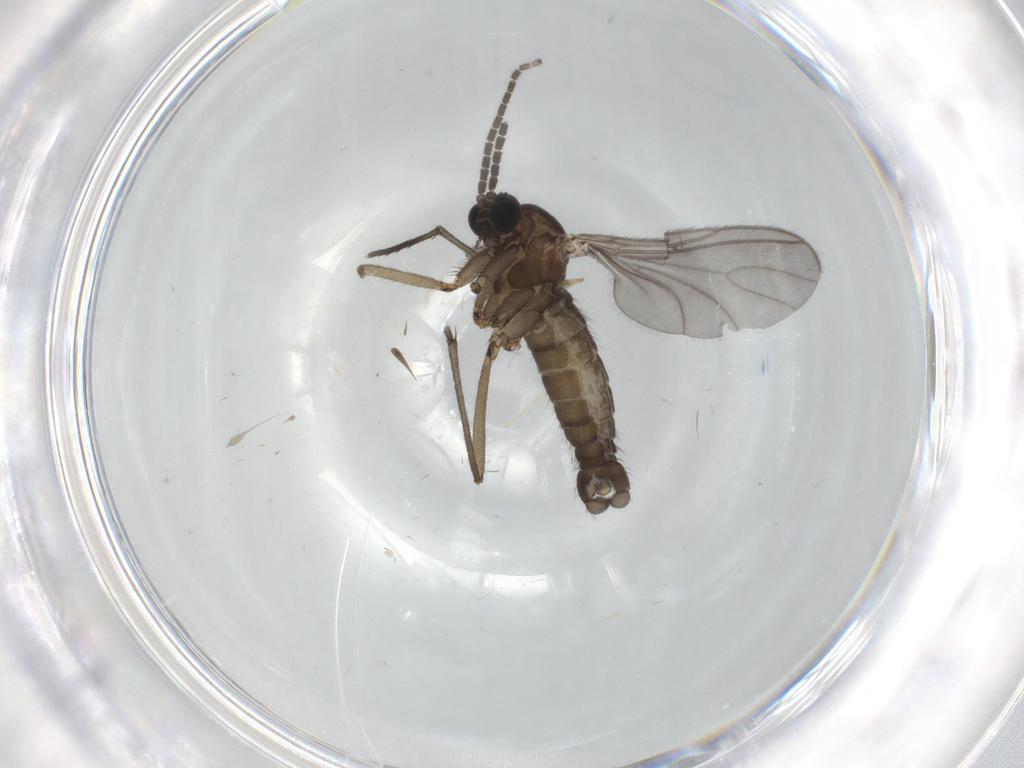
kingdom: Animalia
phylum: Arthropoda
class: Insecta
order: Diptera
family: Sciaridae
